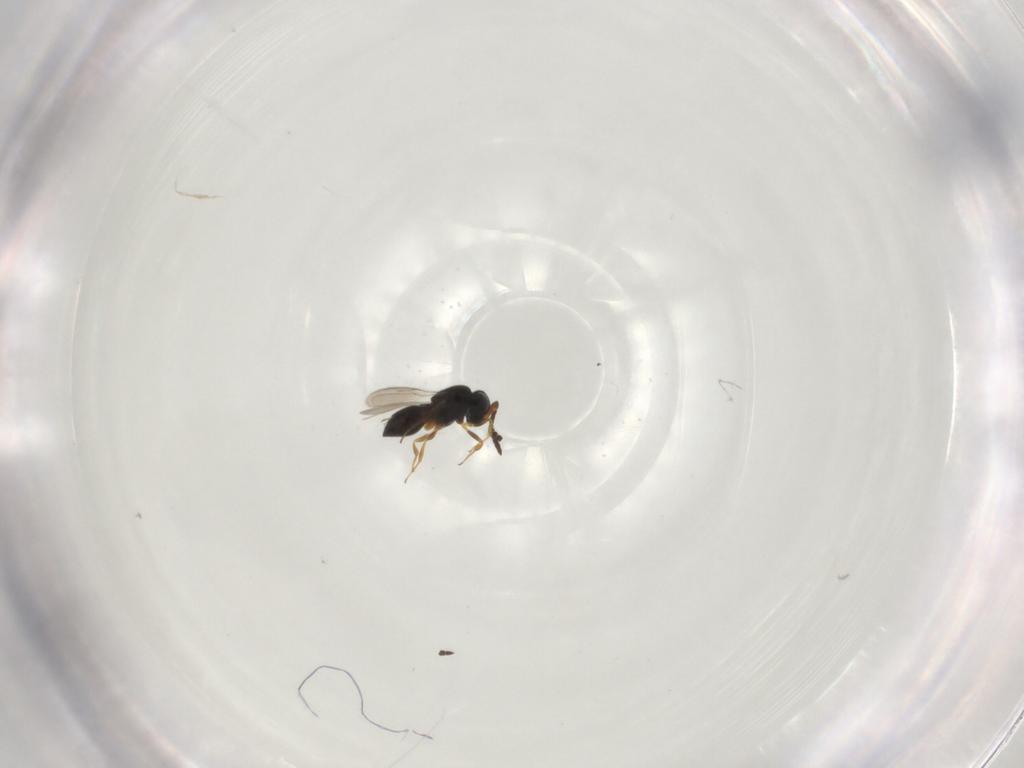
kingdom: Animalia
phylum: Arthropoda
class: Insecta
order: Hymenoptera
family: Scelionidae
